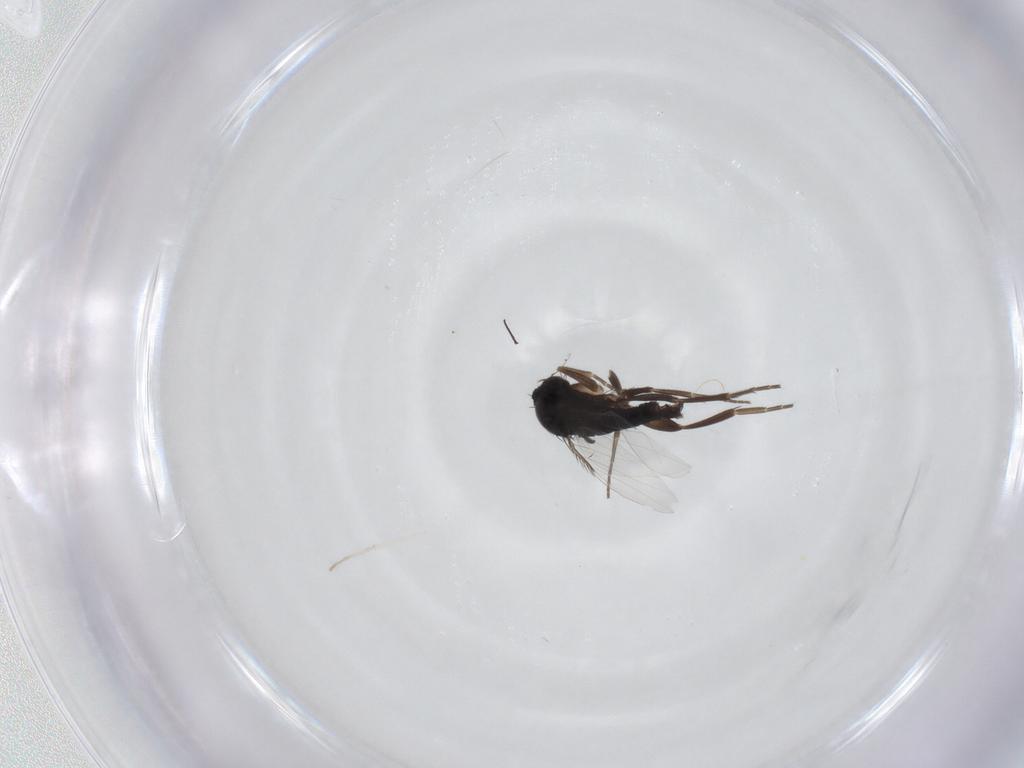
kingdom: Animalia
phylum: Arthropoda
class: Insecta
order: Diptera
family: Phoridae
